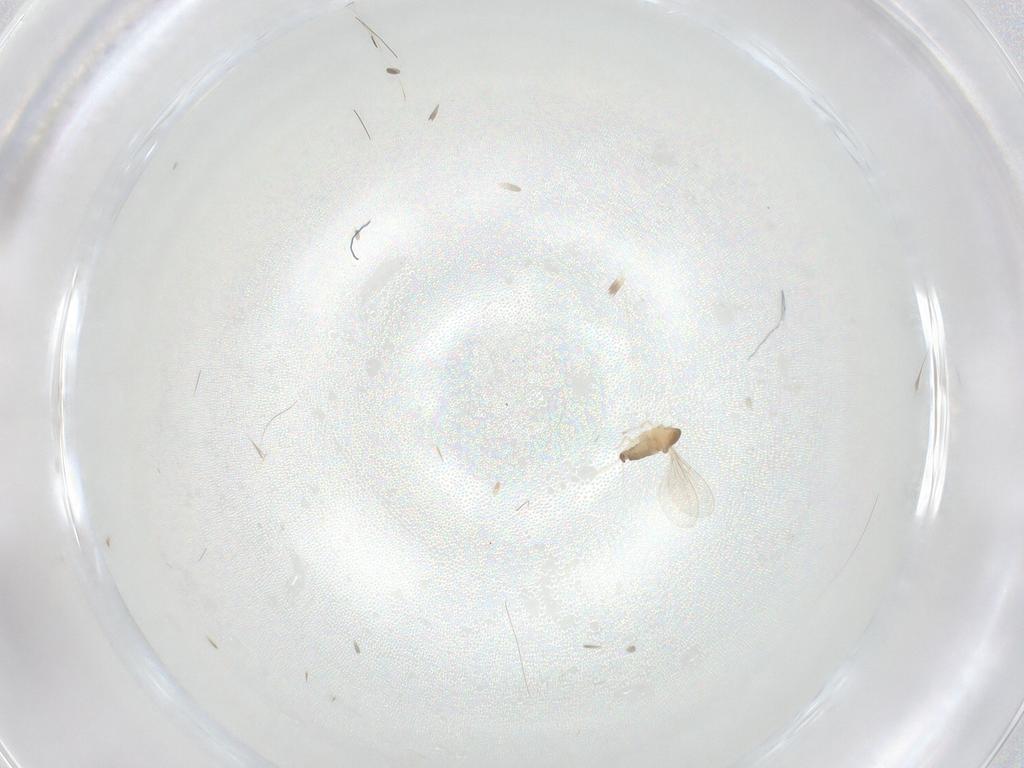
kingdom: Animalia
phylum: Arthropoda
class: Insecta
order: Diptera
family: Cecidomyiidae
